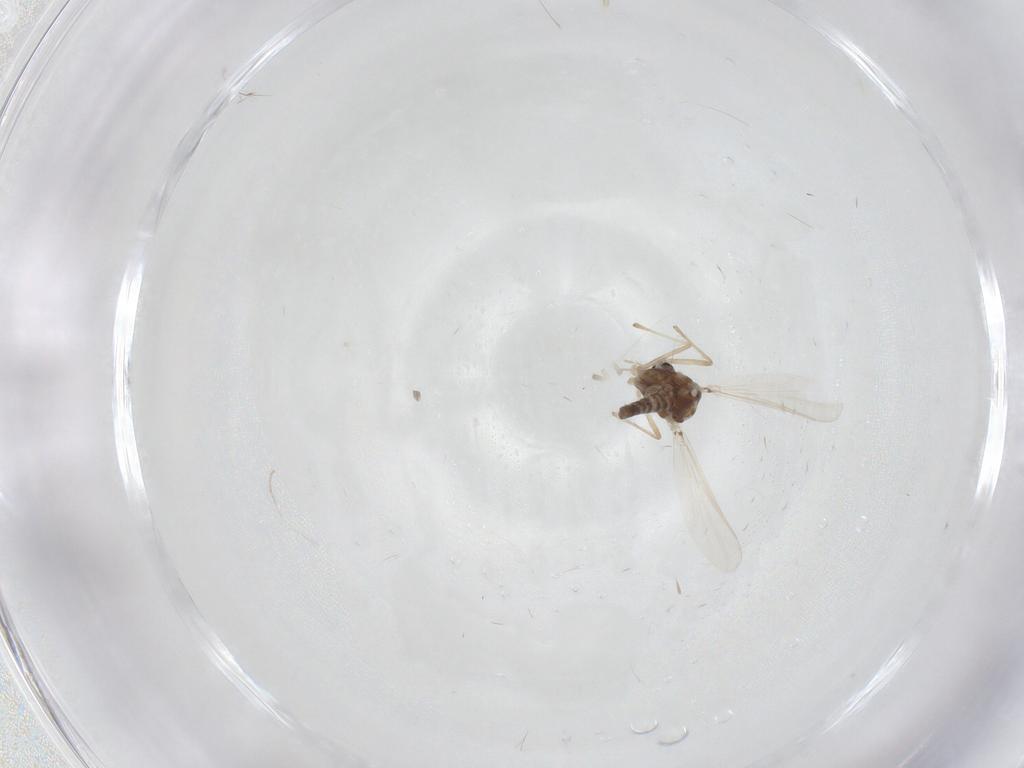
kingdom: Animalia
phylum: Arthropoda
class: Insecta
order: Diptera
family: Chironomidae
